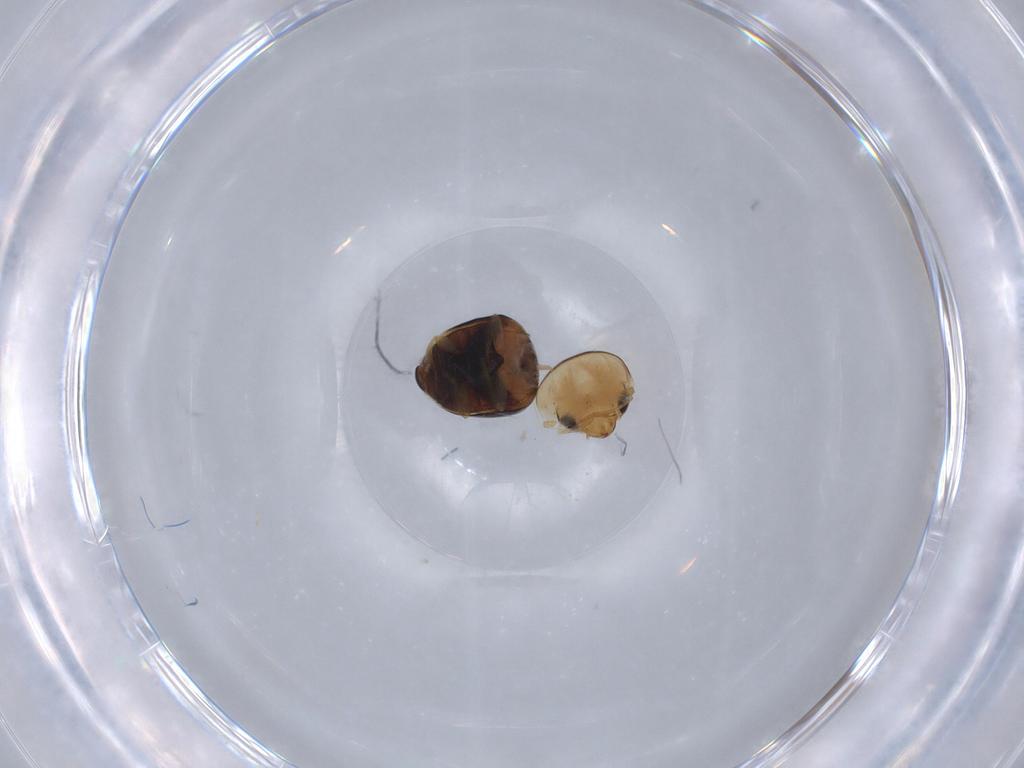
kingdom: Animalia
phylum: Arthropoda
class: Insecta
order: Coleoptera
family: Cybocephalidae
